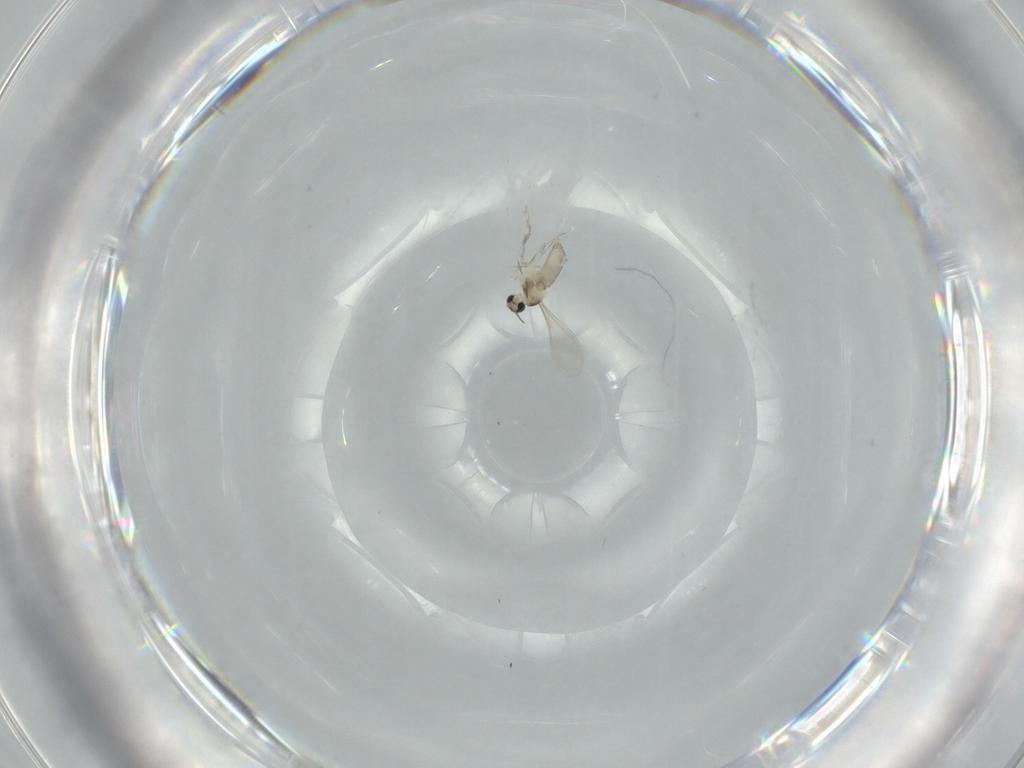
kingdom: Animalia
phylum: Arthropoda
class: Insecta
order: Diptera
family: Cecidomyiidae
